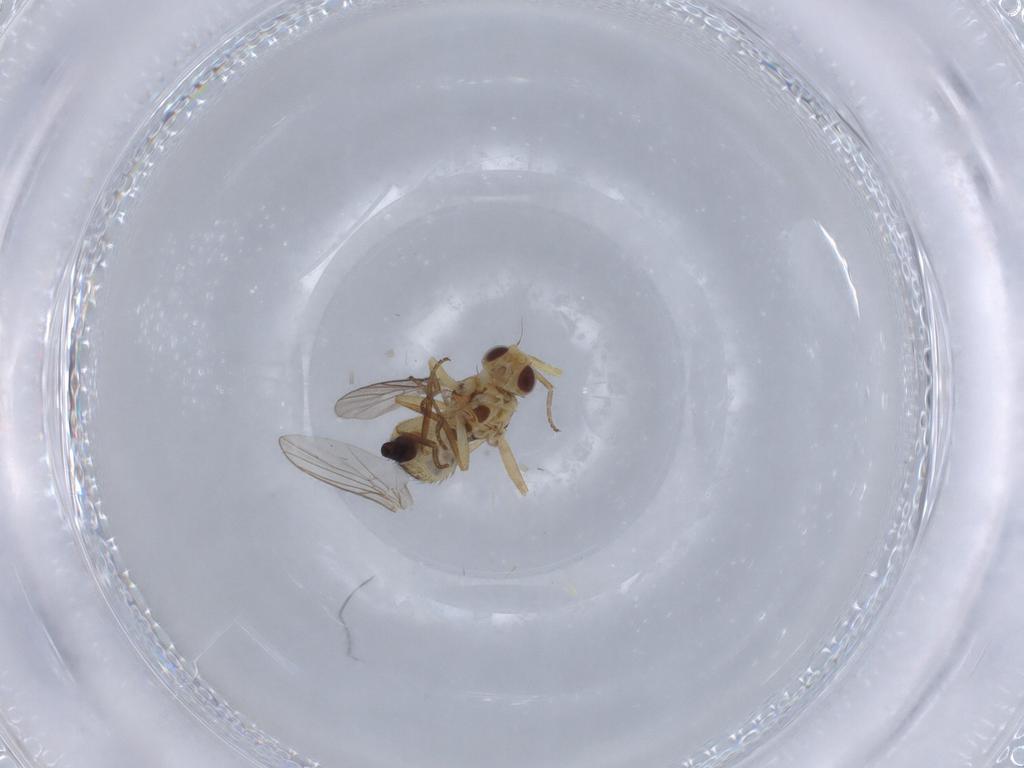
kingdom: Animalia
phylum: Arthropoda
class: Insecta
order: Diptera
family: Agromyzidae
